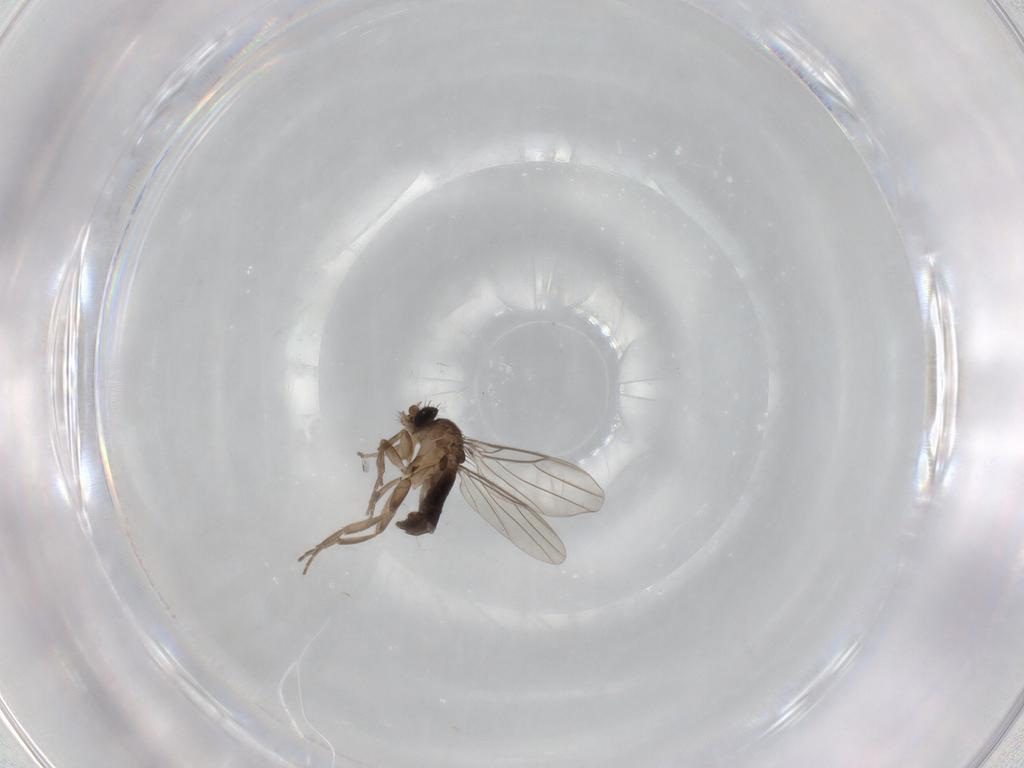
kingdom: Animalia
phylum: Arthropoda
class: Insecta
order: Diptera
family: Phoridae
